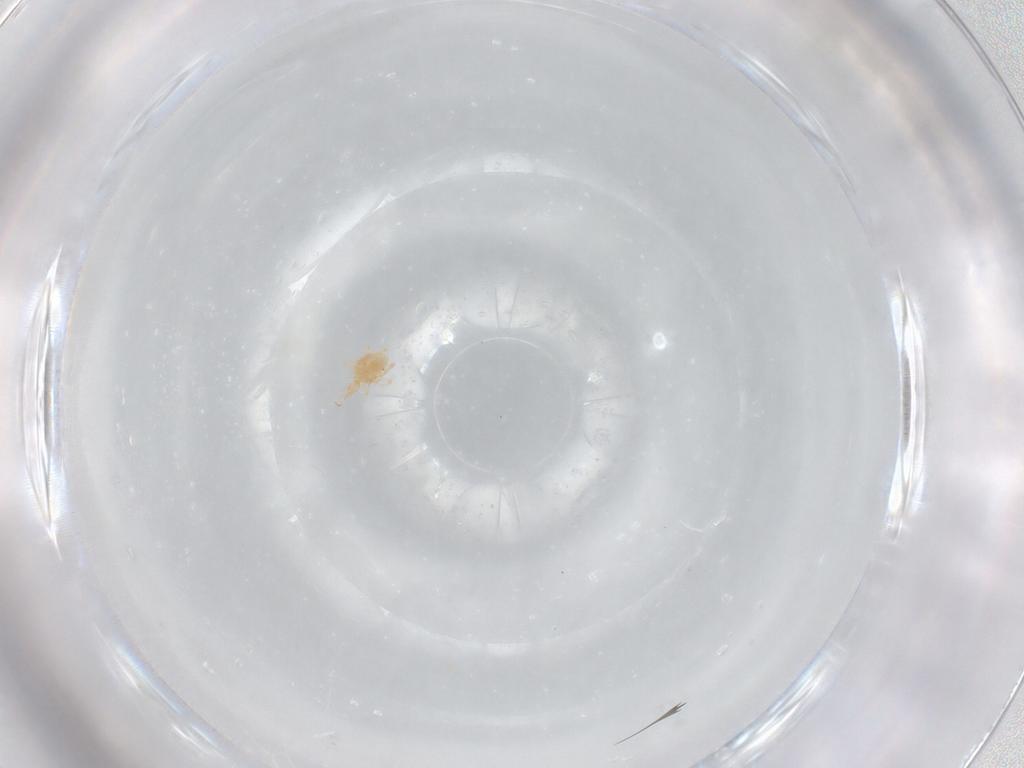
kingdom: Animalia
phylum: Arthropoda
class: Arachnida
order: Trombidiformes
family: Cunaxidae
